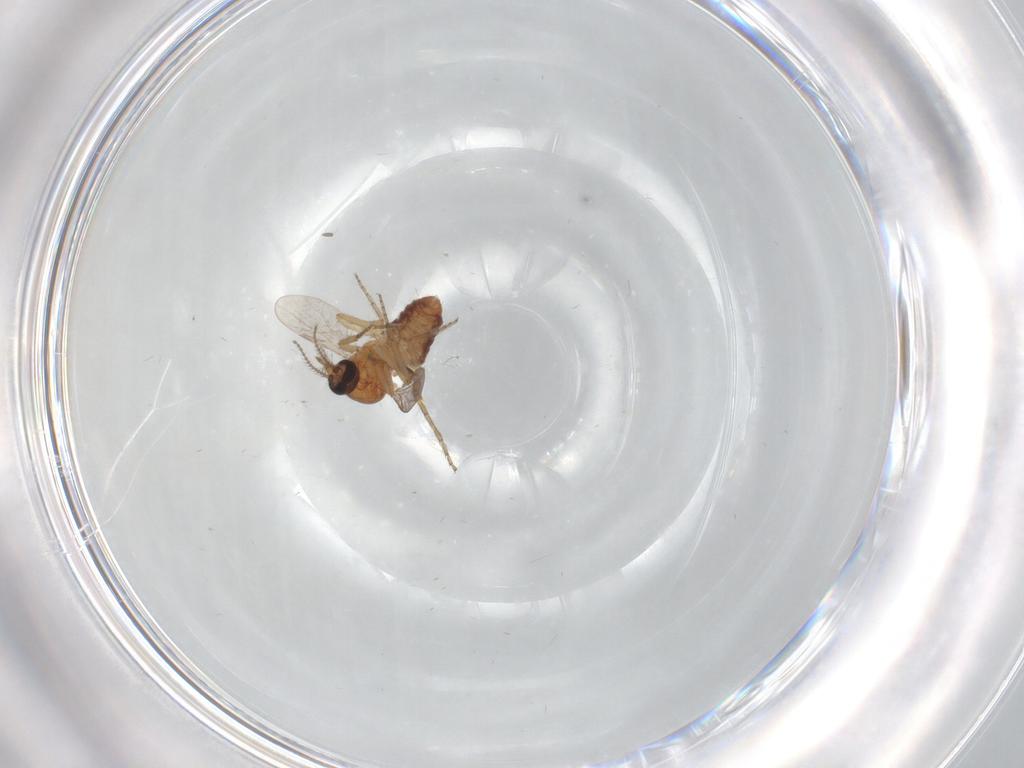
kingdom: Animalia
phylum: Arthropoda
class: Insecta
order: Diptera
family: Ceratopogonidae
